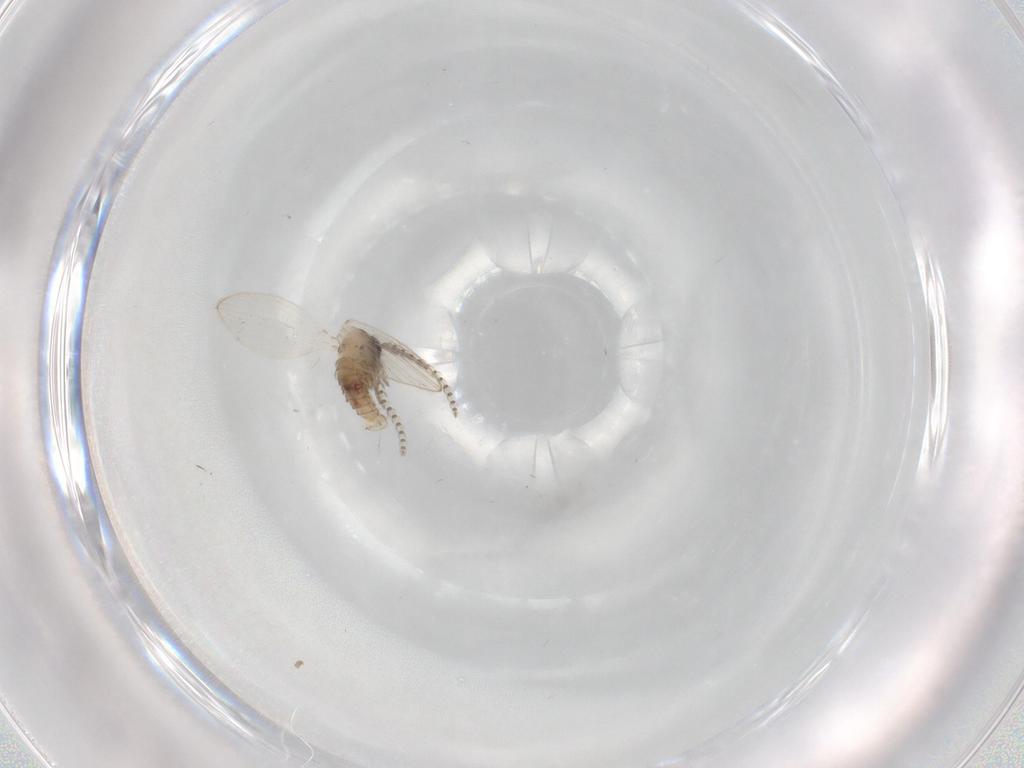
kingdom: Animalia
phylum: Arthropoda
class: Insecta
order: Diptera
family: Psychodidae
